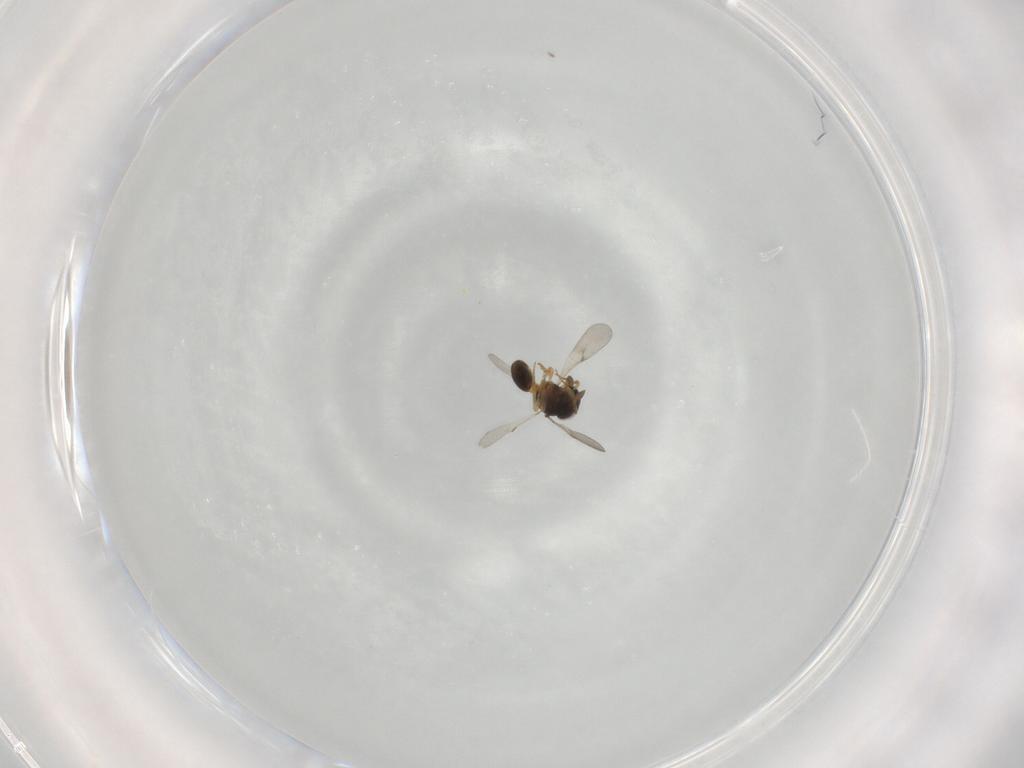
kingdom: Animalia
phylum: Arthropoda
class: Insecta
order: Hymenoptera
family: Scelionidae
